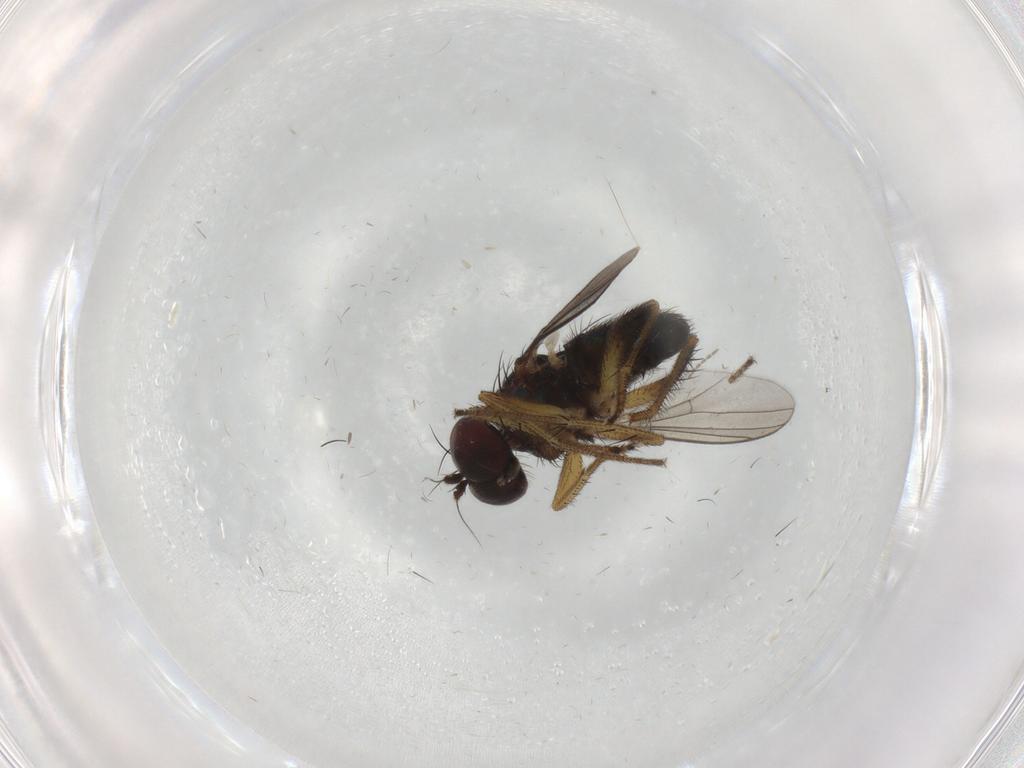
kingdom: Animalia
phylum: Arthropoda
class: Insecta
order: Diptera
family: Dolichopodidae
